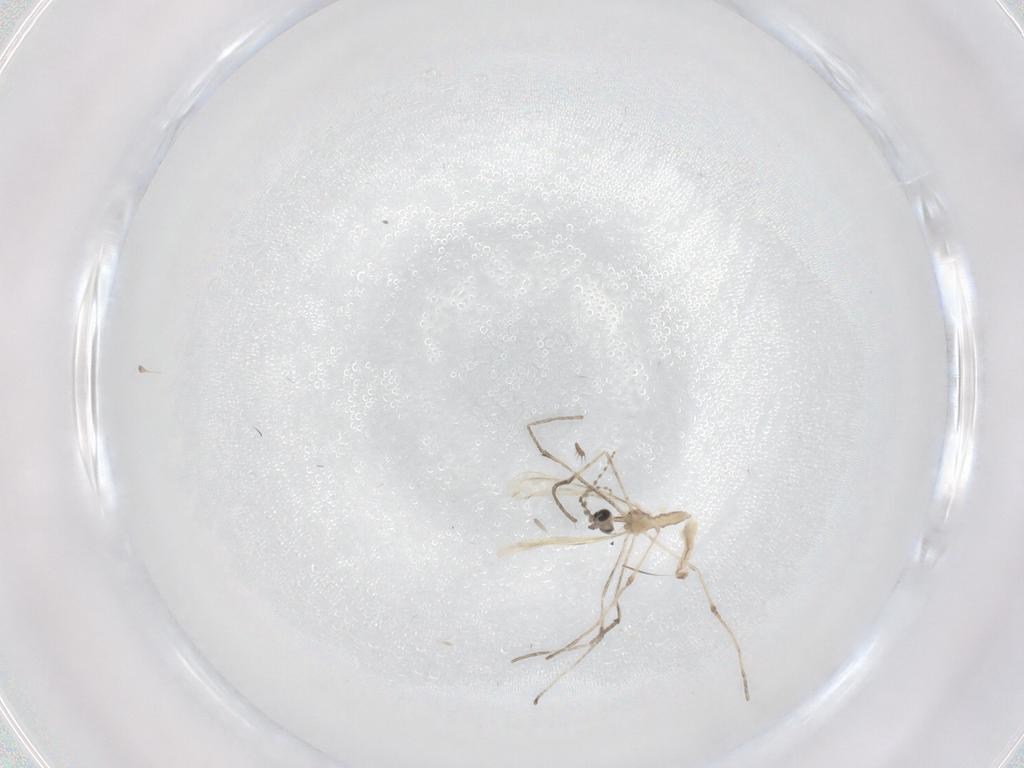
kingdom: Animalia
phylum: Arthropoda
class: Insecta
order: Diptera
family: Cecidomyiidae
